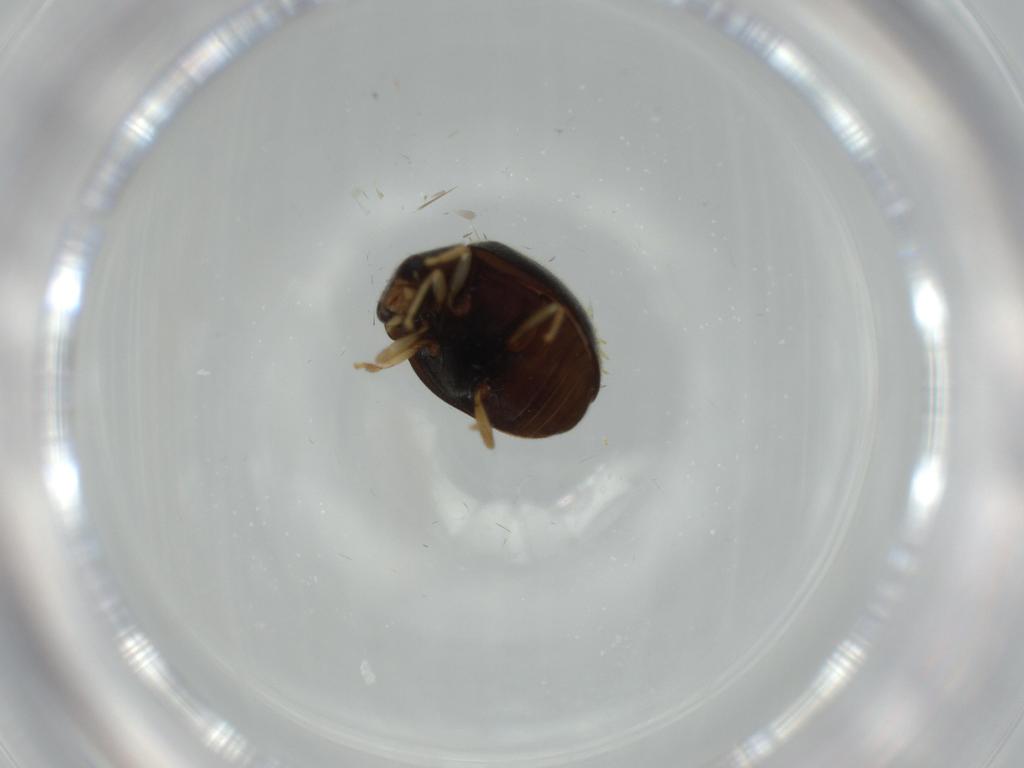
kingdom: Animalia
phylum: Arthropoda
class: Insecta
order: Coleoptera
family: Coccinellidae
